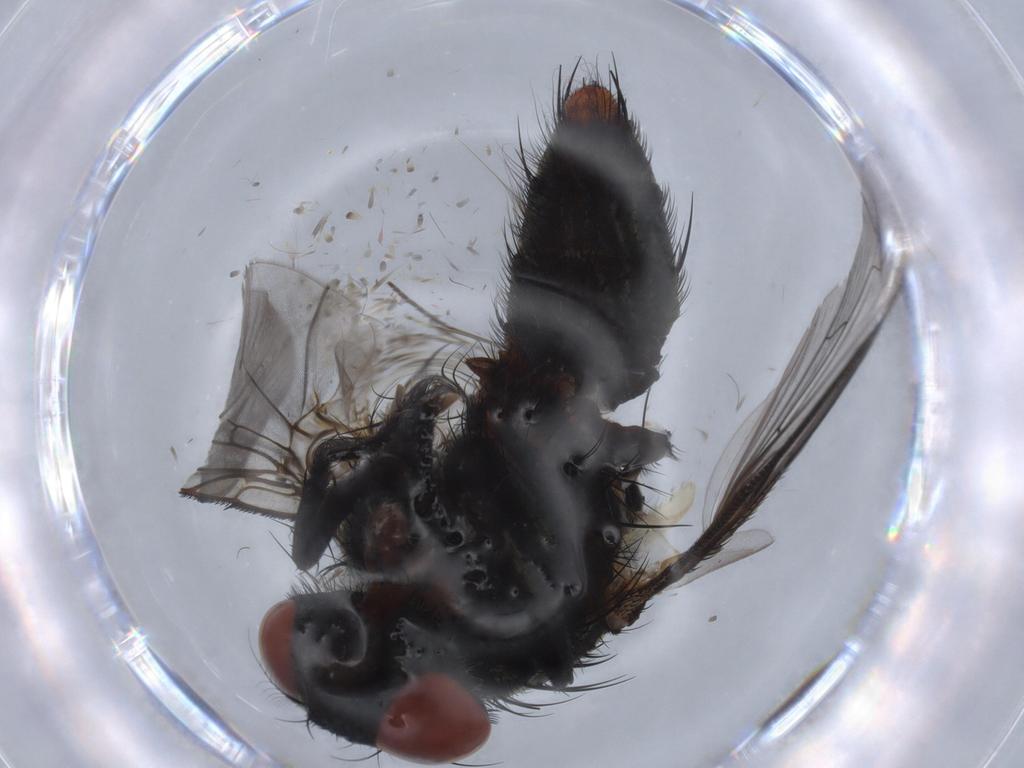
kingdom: Animalia
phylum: Arthropoda
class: Insecta
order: Diptera
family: Sciaridae
